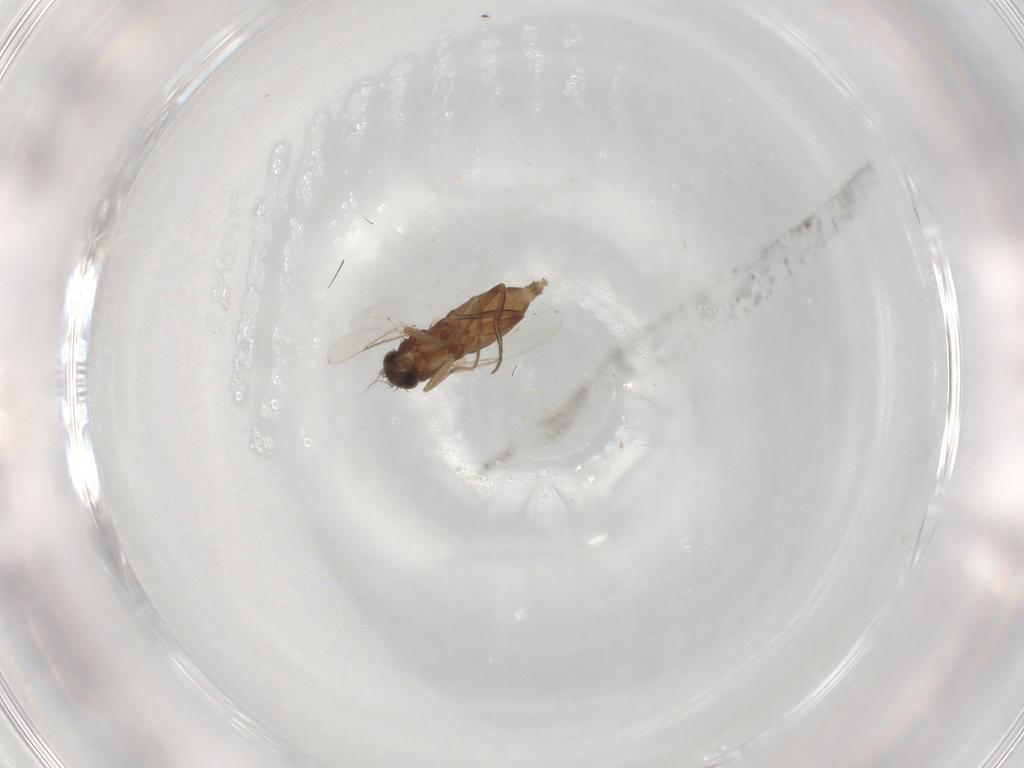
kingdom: Animalia
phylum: Arthropoda
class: Insecta
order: Diptera
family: Phoridae
